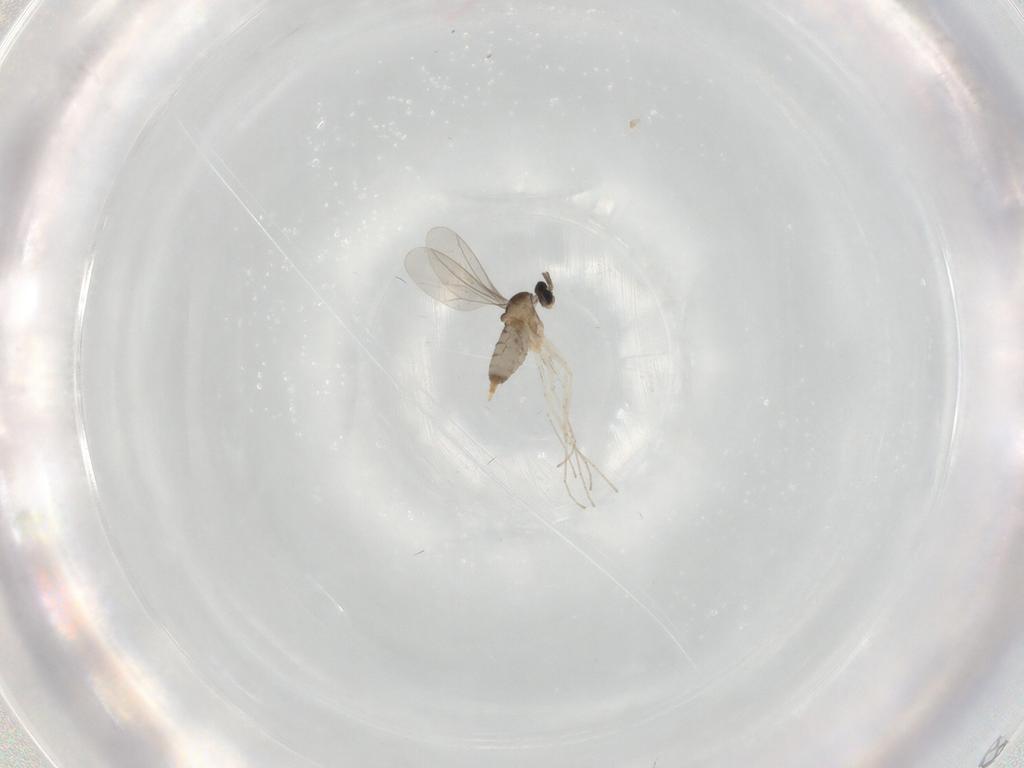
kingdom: Animalia
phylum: Arthropoda
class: Insecta
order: Diptera
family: Cecidomyiidae
